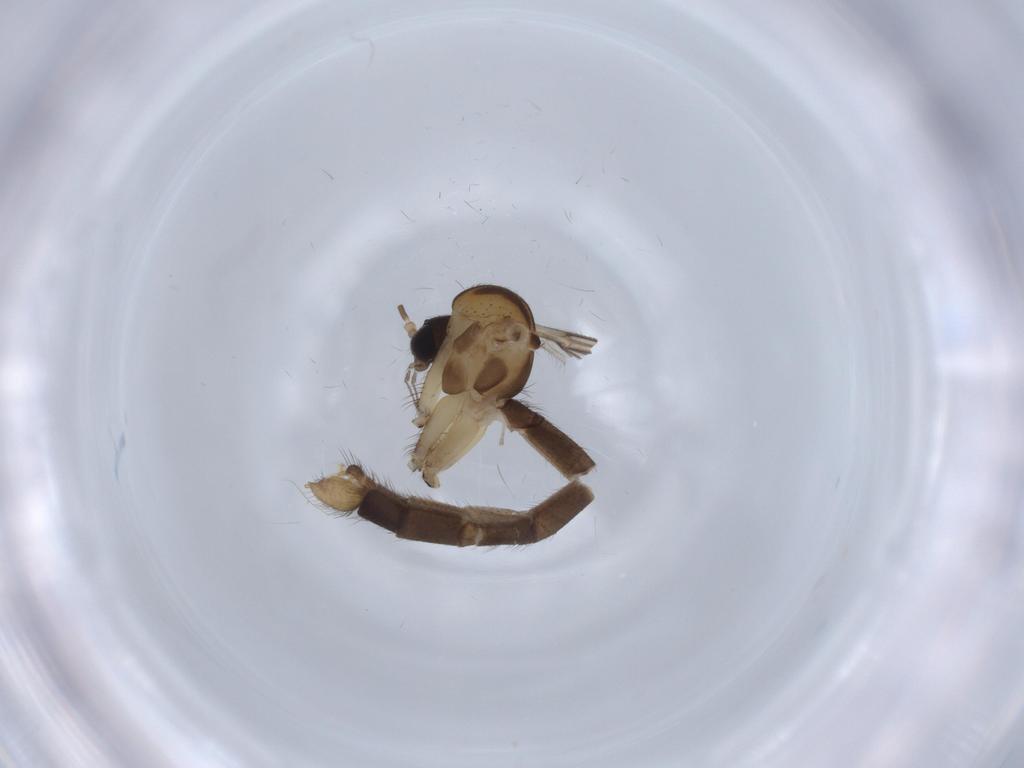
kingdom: Animalia
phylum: Arthropoda
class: Insecta
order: Diptera
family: Mycetophilidae
